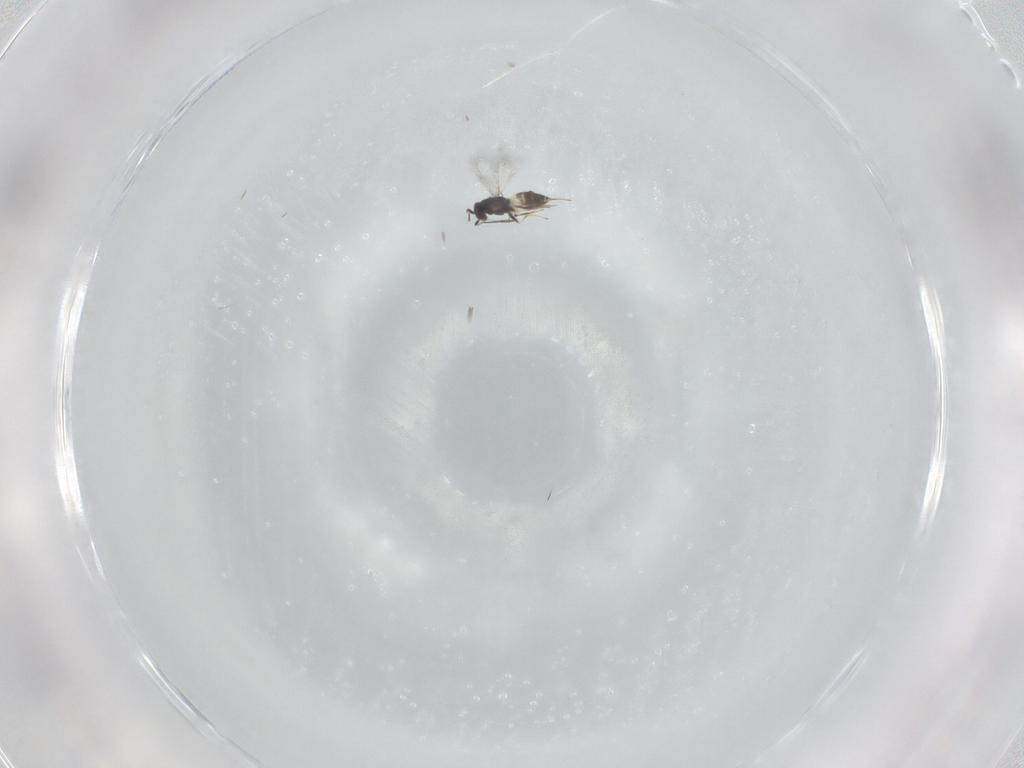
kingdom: Animalia
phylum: Arthropoda
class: Insecta
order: Hymenoptera
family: Mymaridae
